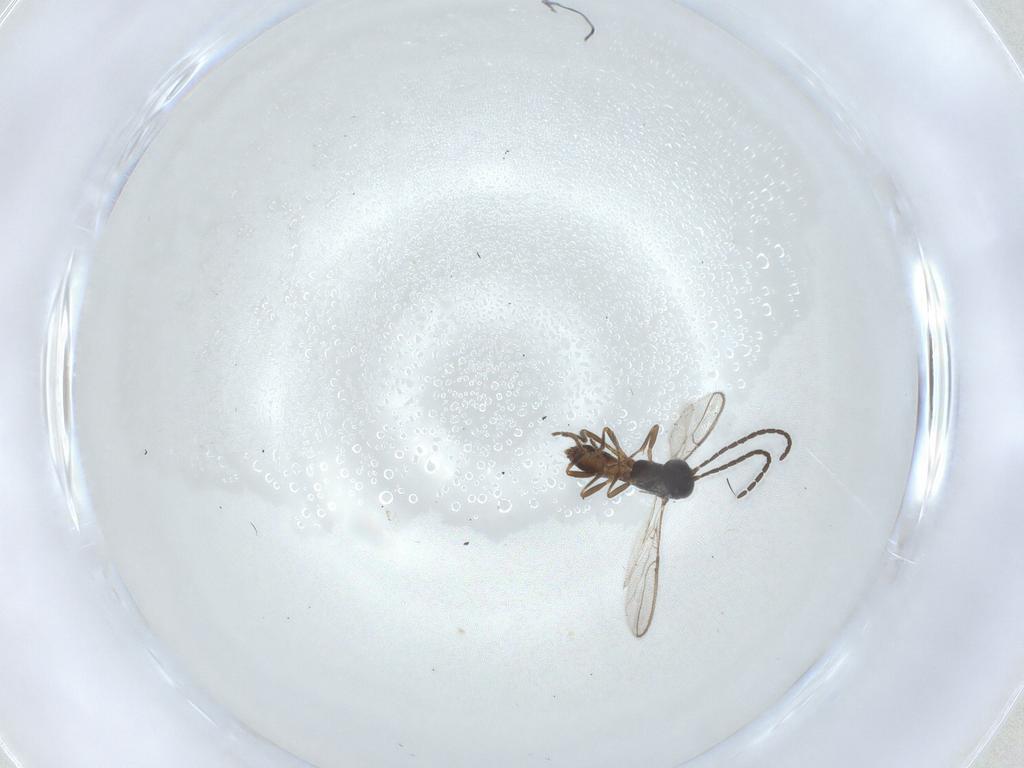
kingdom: Animalia
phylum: Arthropoda
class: Insecta
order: Hymenoptera
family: Braconidae
